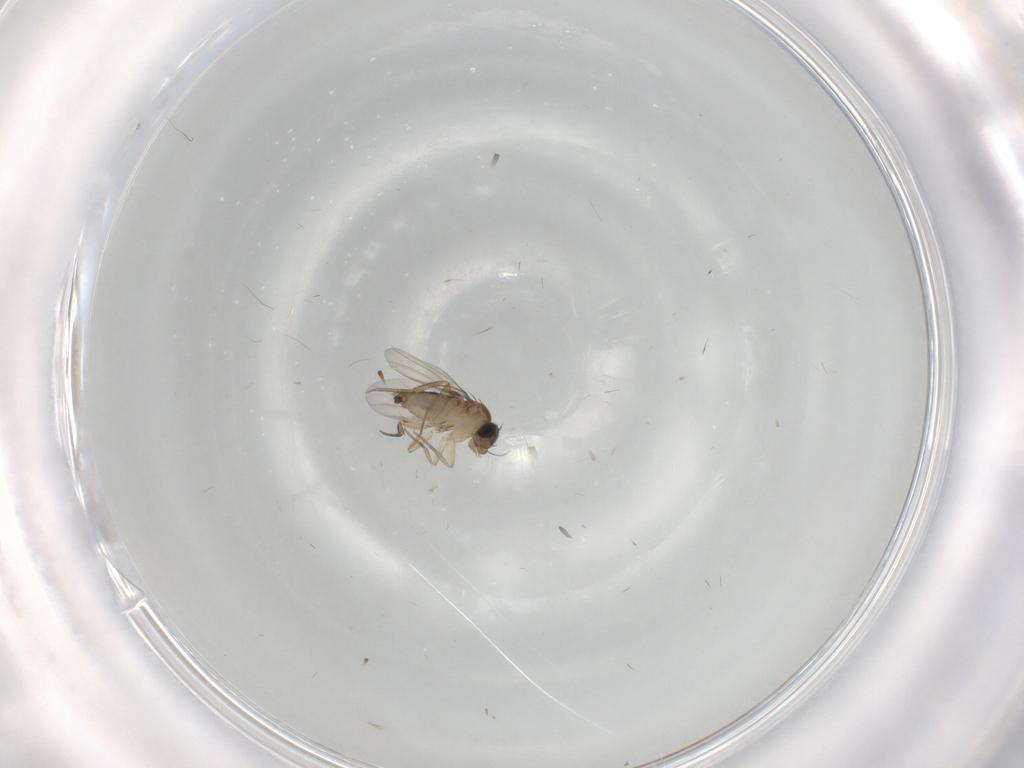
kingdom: Animalia
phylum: Arthropoda
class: Insecta
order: Diptera
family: Phoridae
